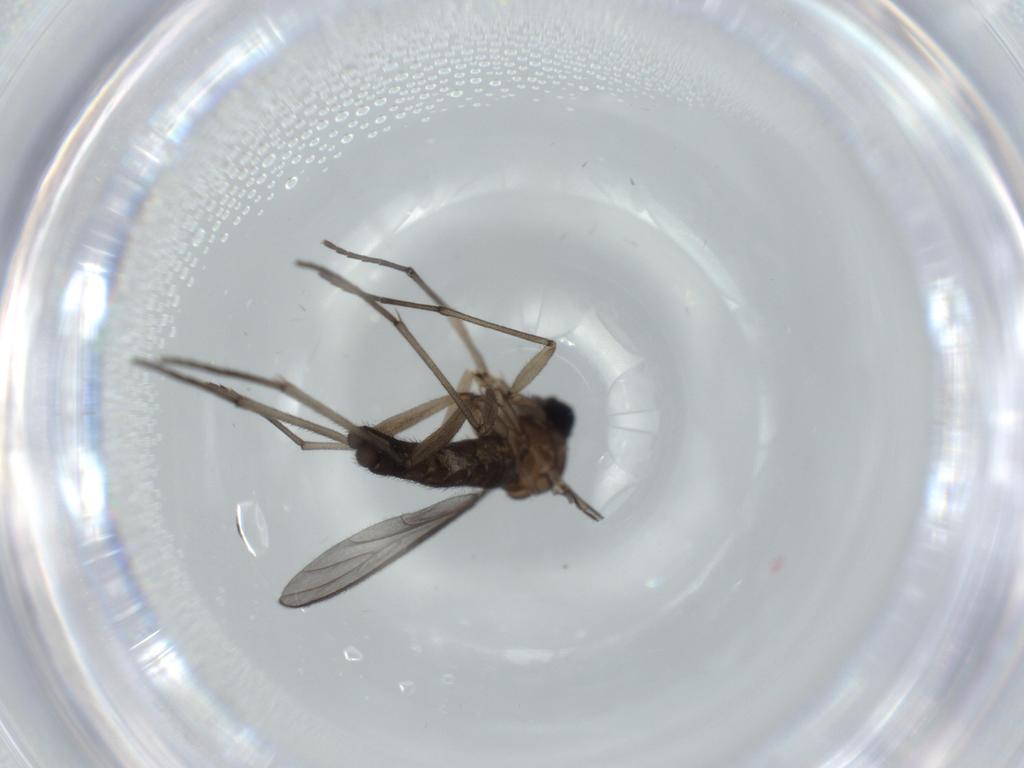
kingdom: Animalia
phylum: Arthropoda
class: Insecta
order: Diptera
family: Sciaridae
